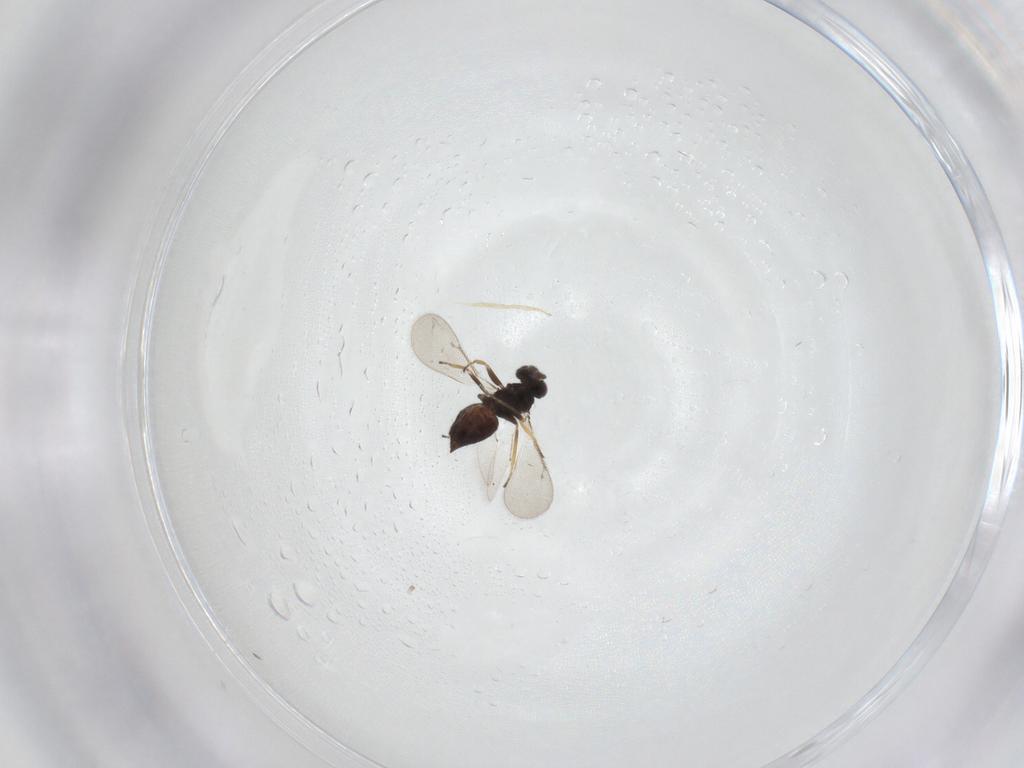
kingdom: Animalia
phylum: Arthropoda
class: Insecta
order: Hymenoptera
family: Eulophidae
